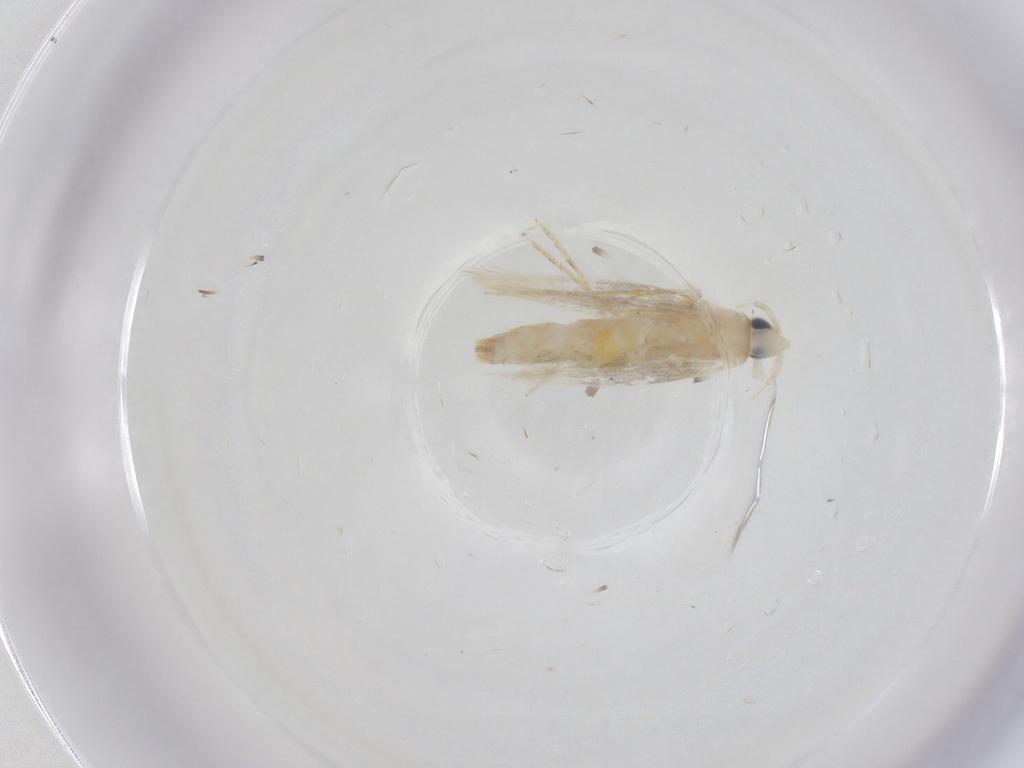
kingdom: Animalia
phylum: Arthropoda
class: Insecta
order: Lepidoptera
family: Tineidae
